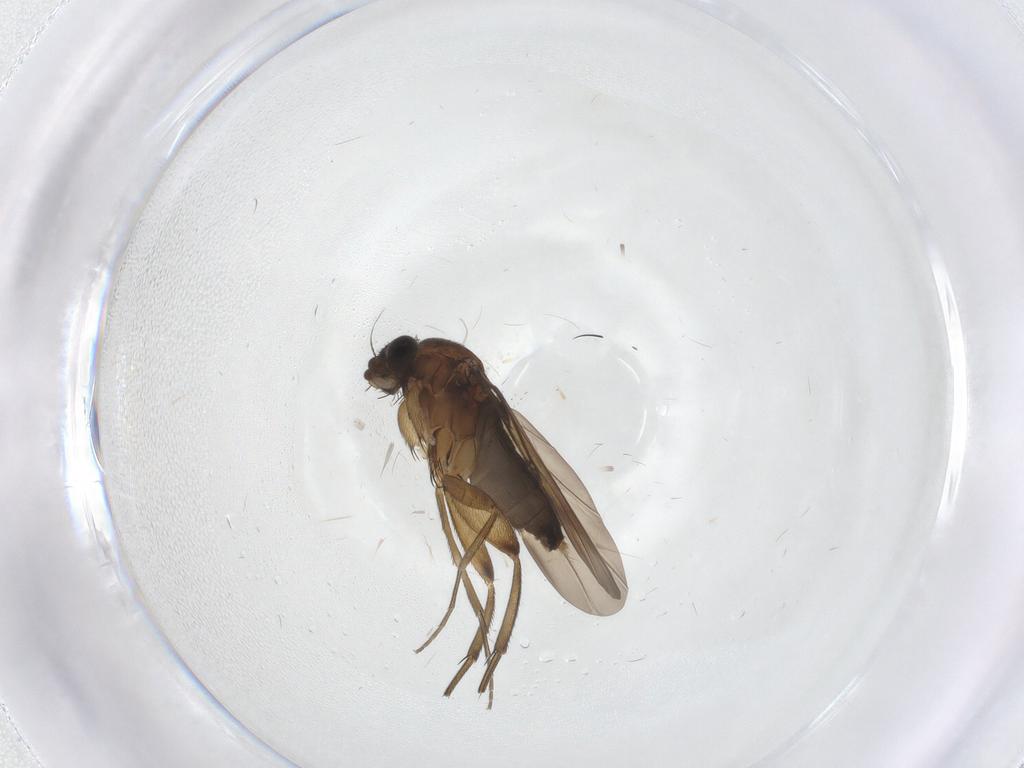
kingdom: Animalia
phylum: Arthropoda
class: Insecta
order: Diptera
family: Phoridae
